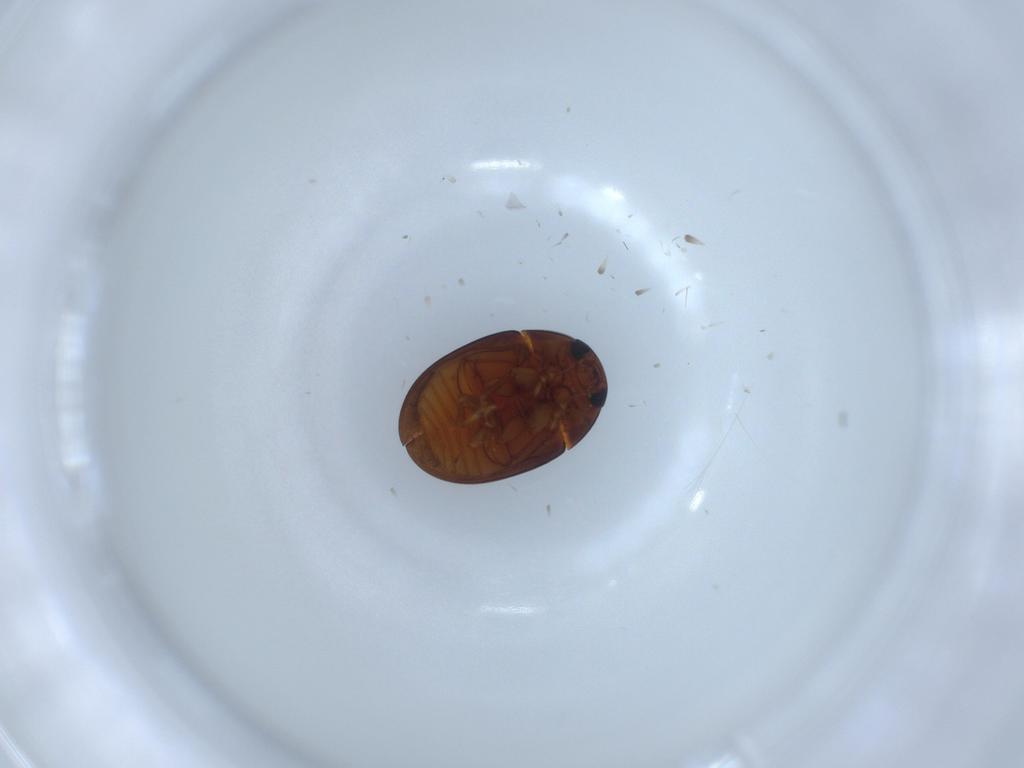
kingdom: Animalia
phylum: Arthropoda
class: Insecta
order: Coleoptera
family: Phalacridae
